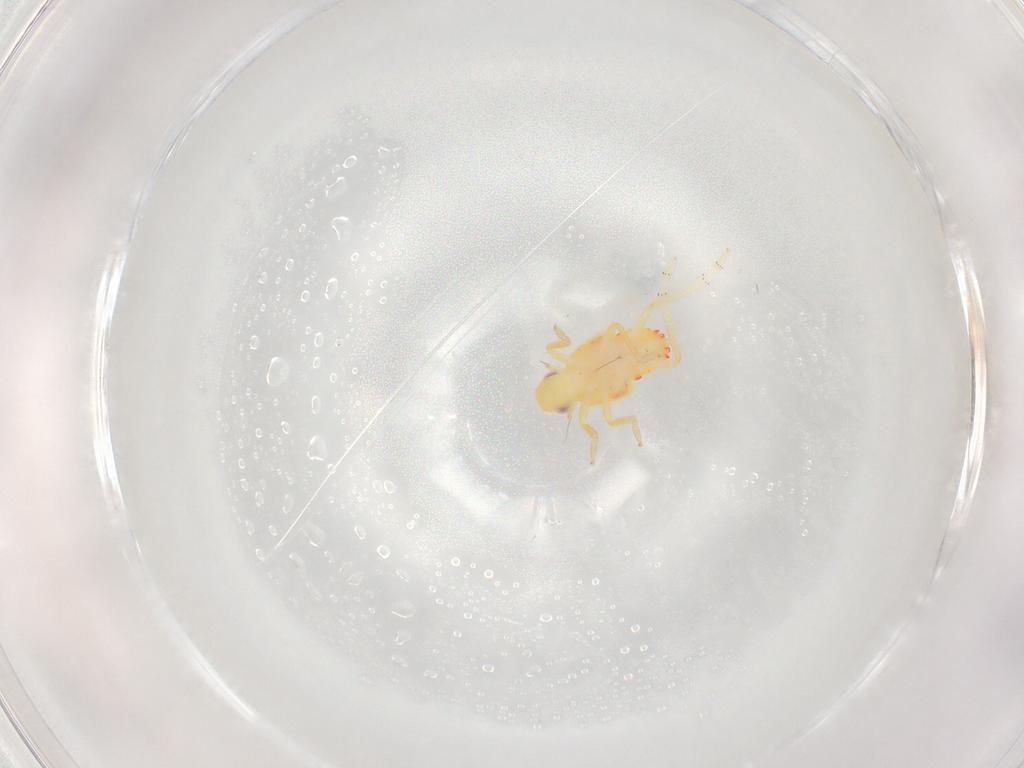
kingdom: Animalia
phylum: Arthropoda
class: Insecta
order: Hemiptera
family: Tropiduchidae
